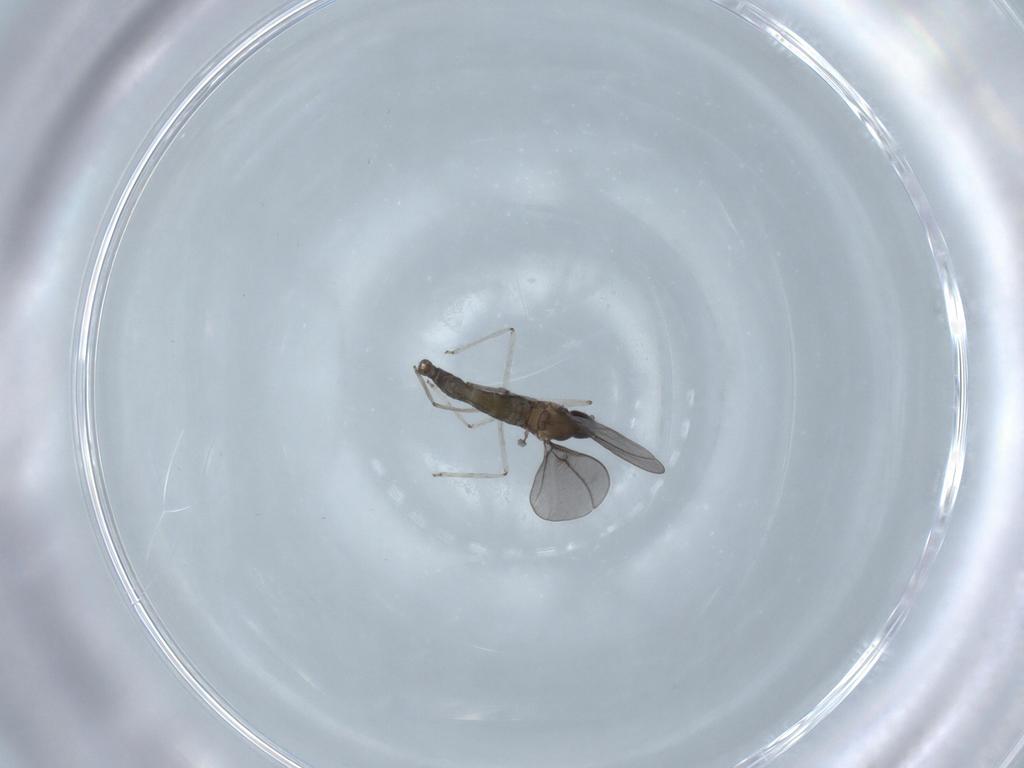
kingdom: Animalia
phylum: Arthropoda
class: Insecta
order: Diptera
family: Cecidomyiidae
